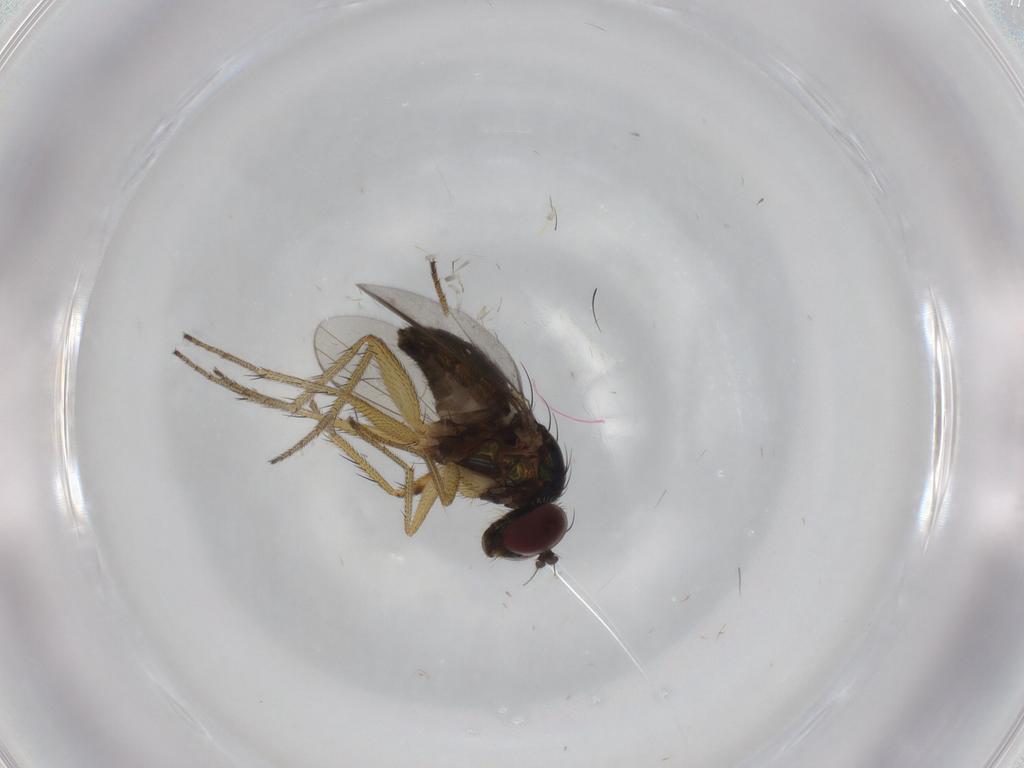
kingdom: Animalia
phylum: Arthropoda
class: Insecta
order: Diptera
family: Dolichopodidae
